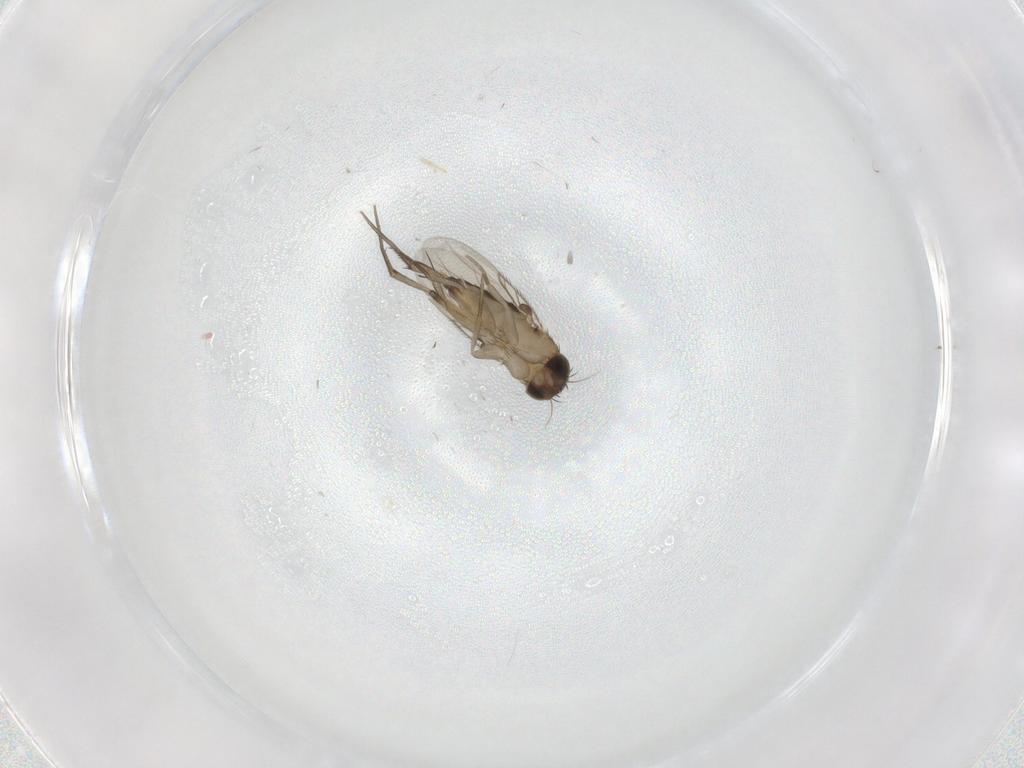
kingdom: Animalia
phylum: Arthropoda
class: Insecta
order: Diptera
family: Phoridae
